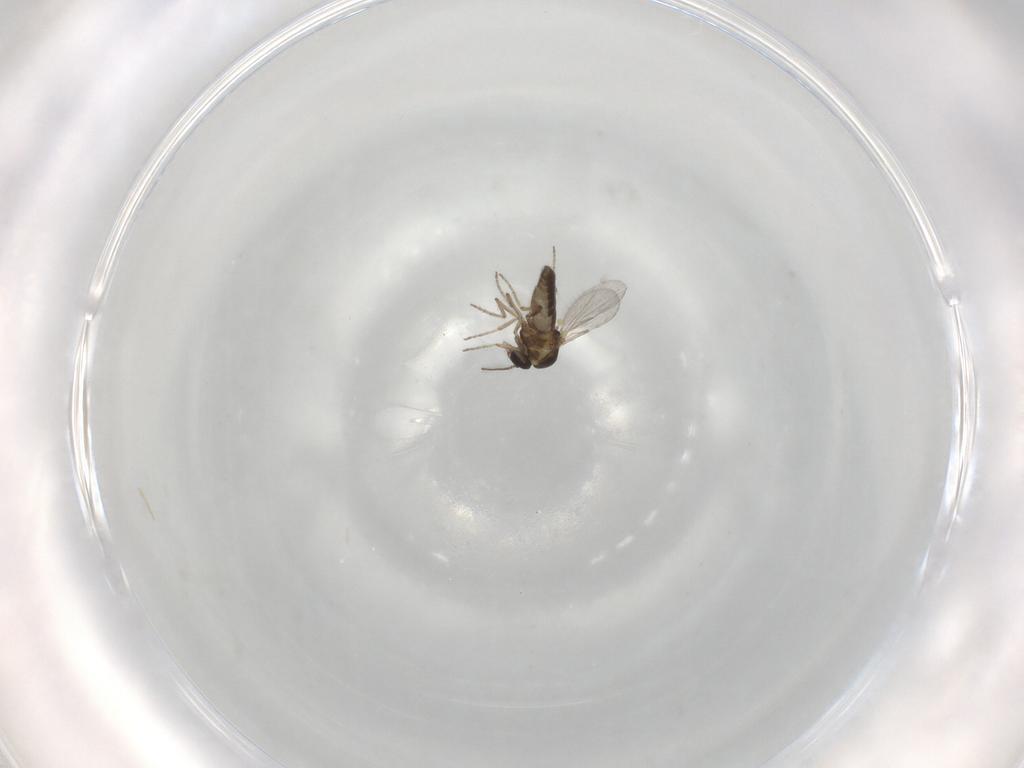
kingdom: Animalia
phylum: Arthropoda
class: Insecta
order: Diptera
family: Ceratopogonidae
